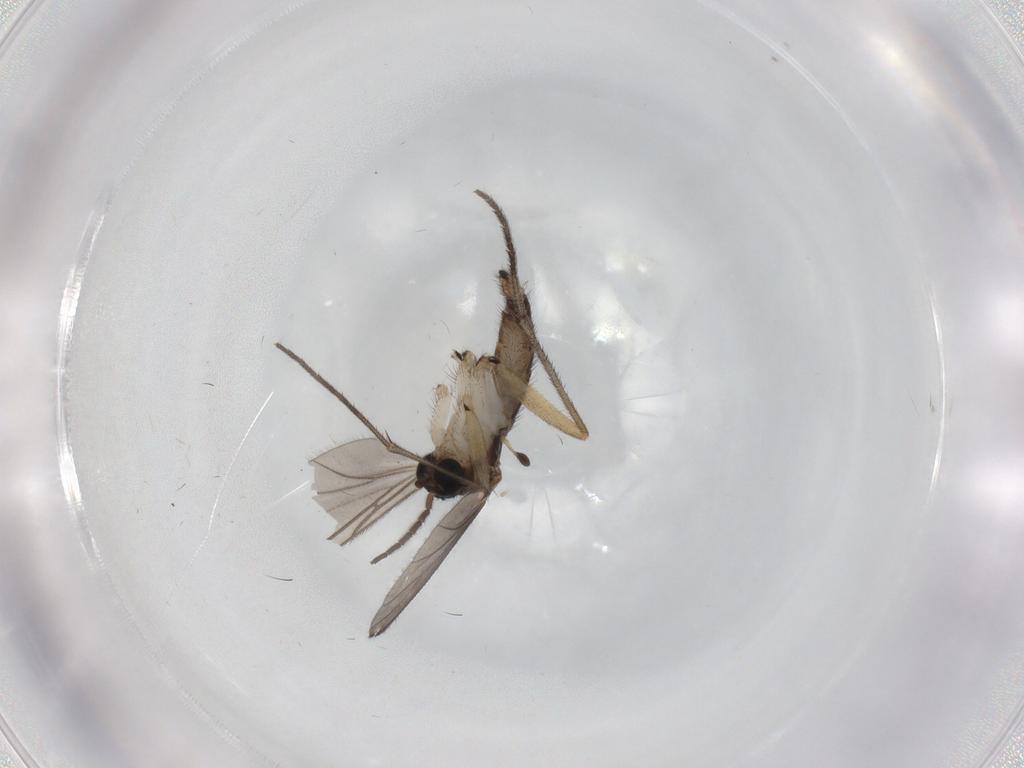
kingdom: Animalia
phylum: Arthropoda
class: Insecta
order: Diptera
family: Sciaridae
